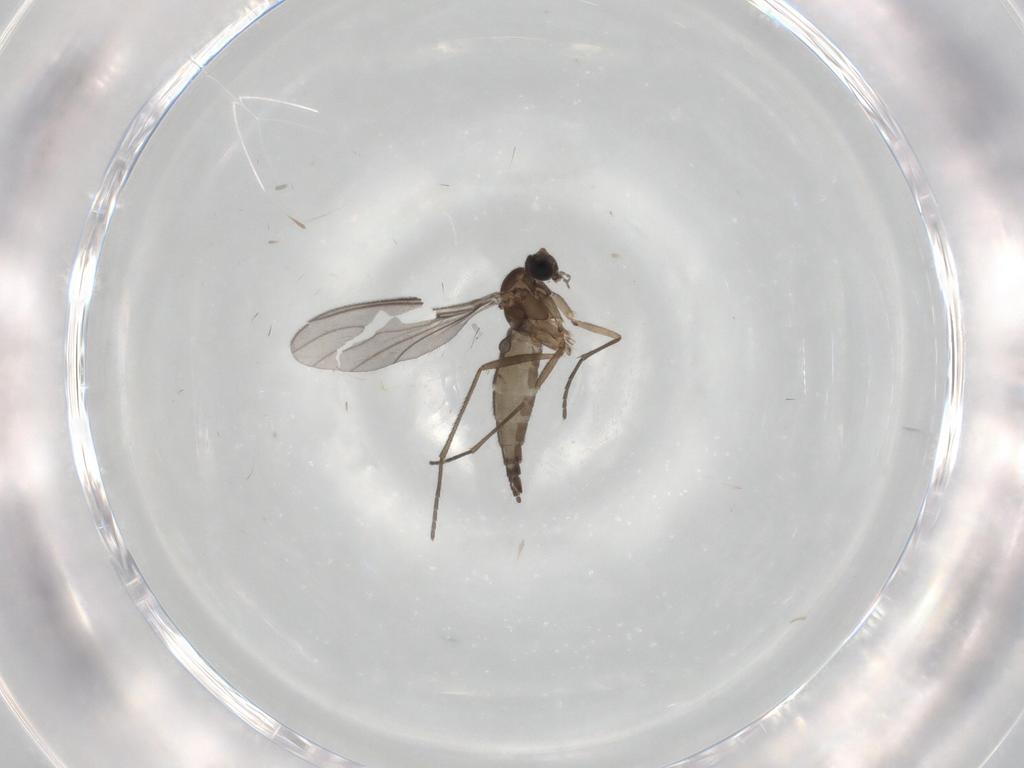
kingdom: Animalia
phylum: Arthropoda
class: Insecta
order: Diptera
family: Sciaridae
